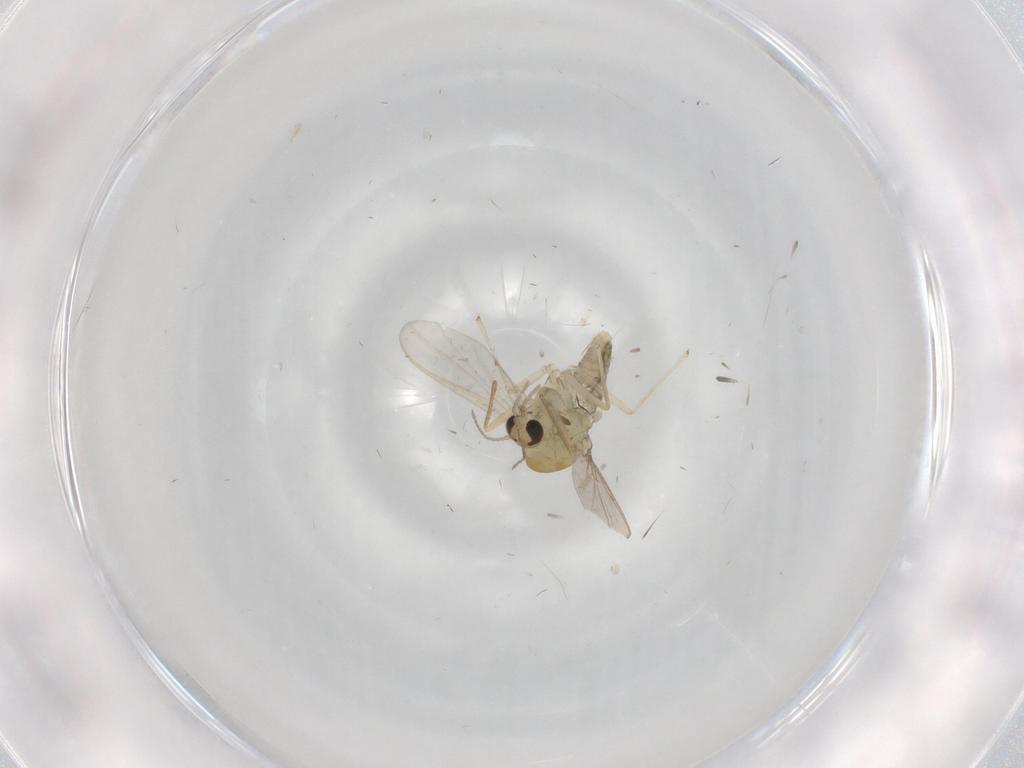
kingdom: Animalia
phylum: Arthropoda
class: Insecta
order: Diptera
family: Chironomidae
